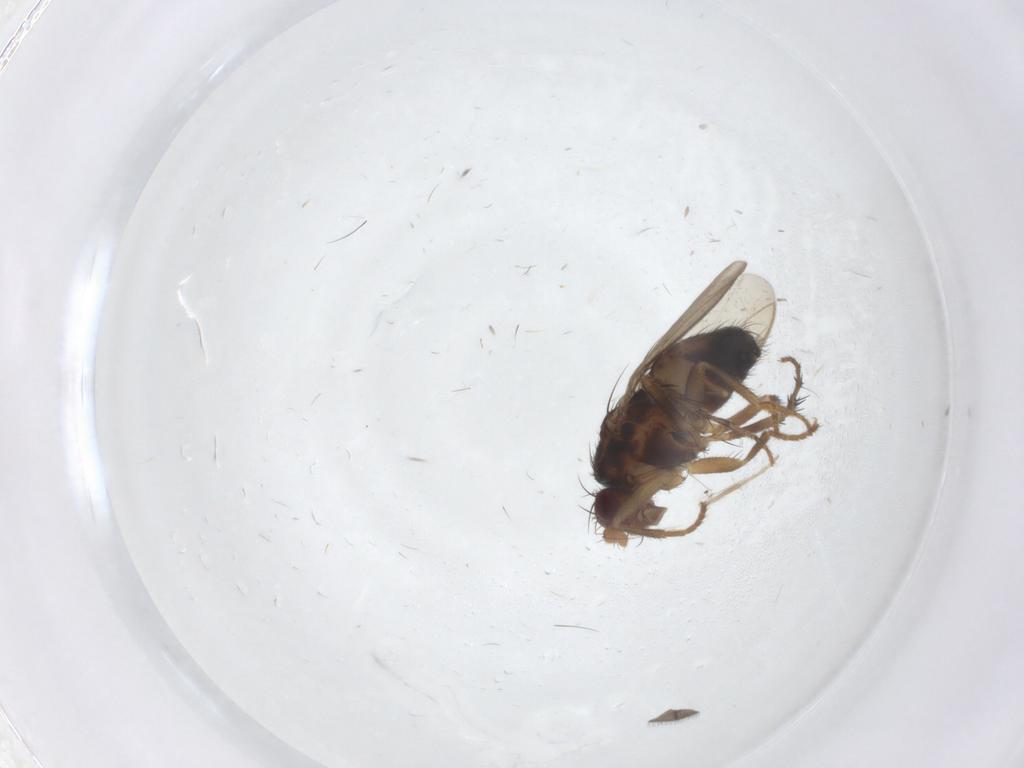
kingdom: Animalia
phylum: Arthropoda
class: Insecta
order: Diptera
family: Sphaeroceridae
